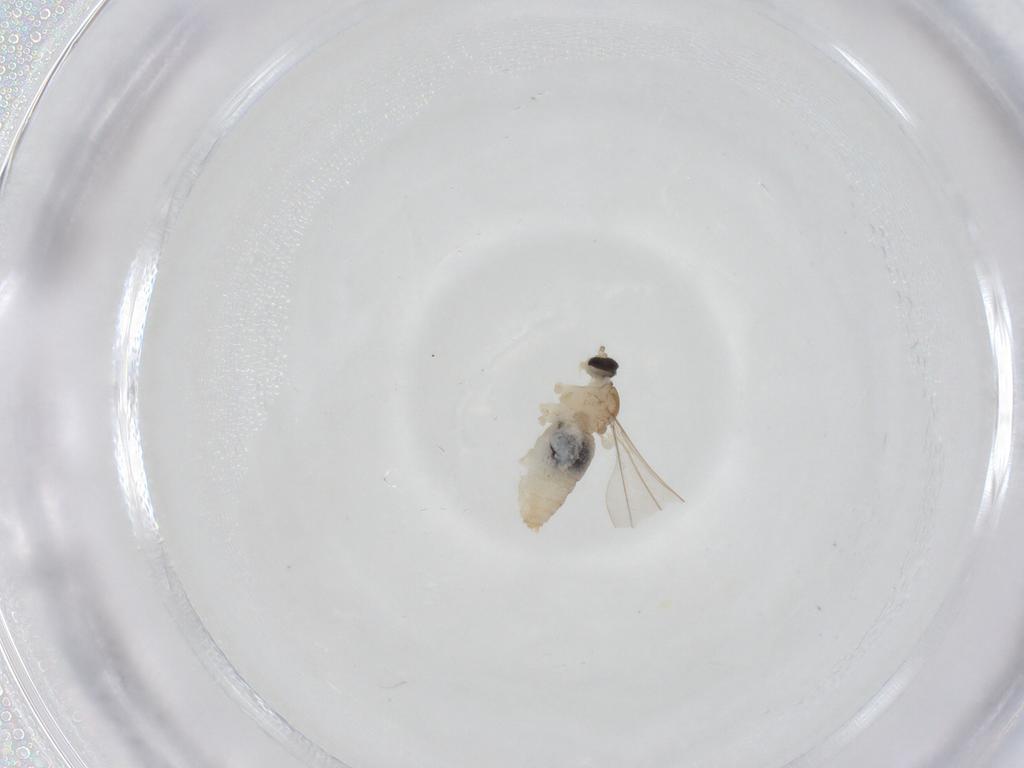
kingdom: Animalia
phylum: Arthropoda
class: Insecta
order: Diptera
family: Cecidomyiidae
